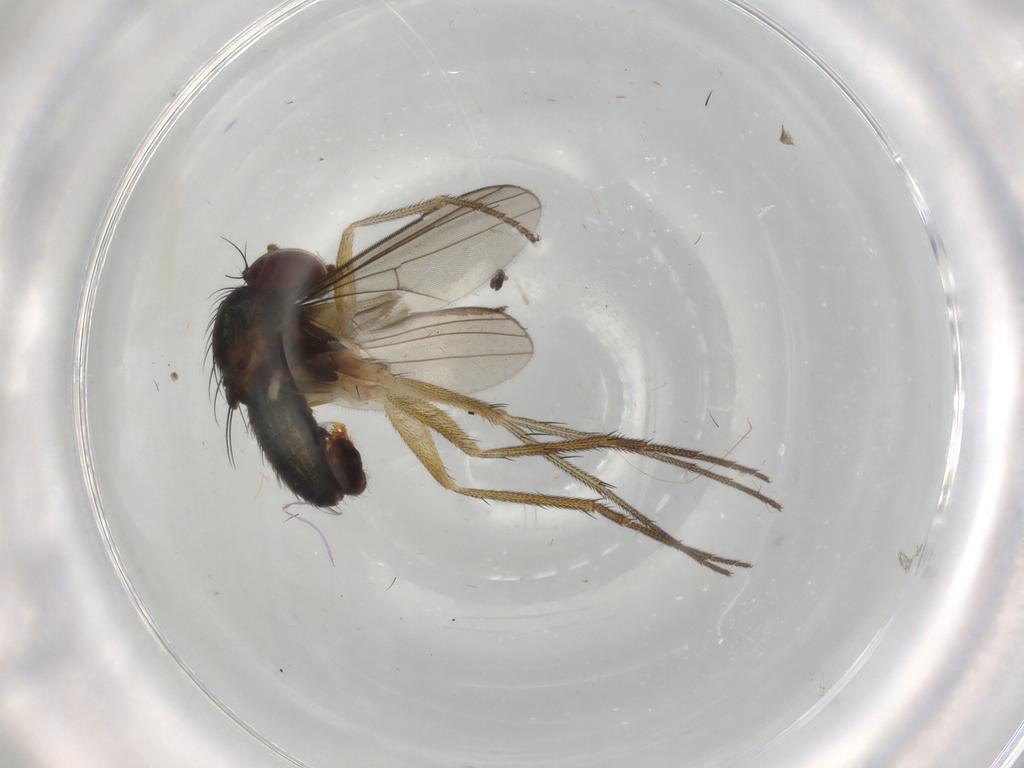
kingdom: Animalia
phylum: Arthropoda
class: Insecta
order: Diptera
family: Dolichopodidae
